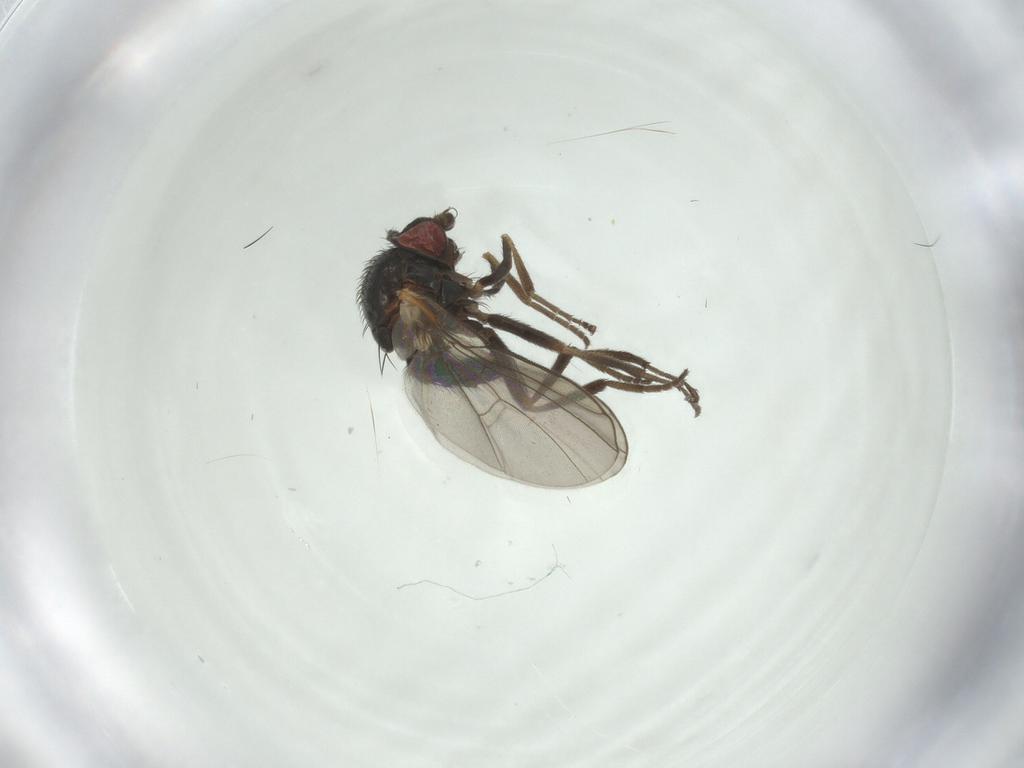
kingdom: Animalia
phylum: Arthropoda
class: Insecta
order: Diptera
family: Agromyzidae
